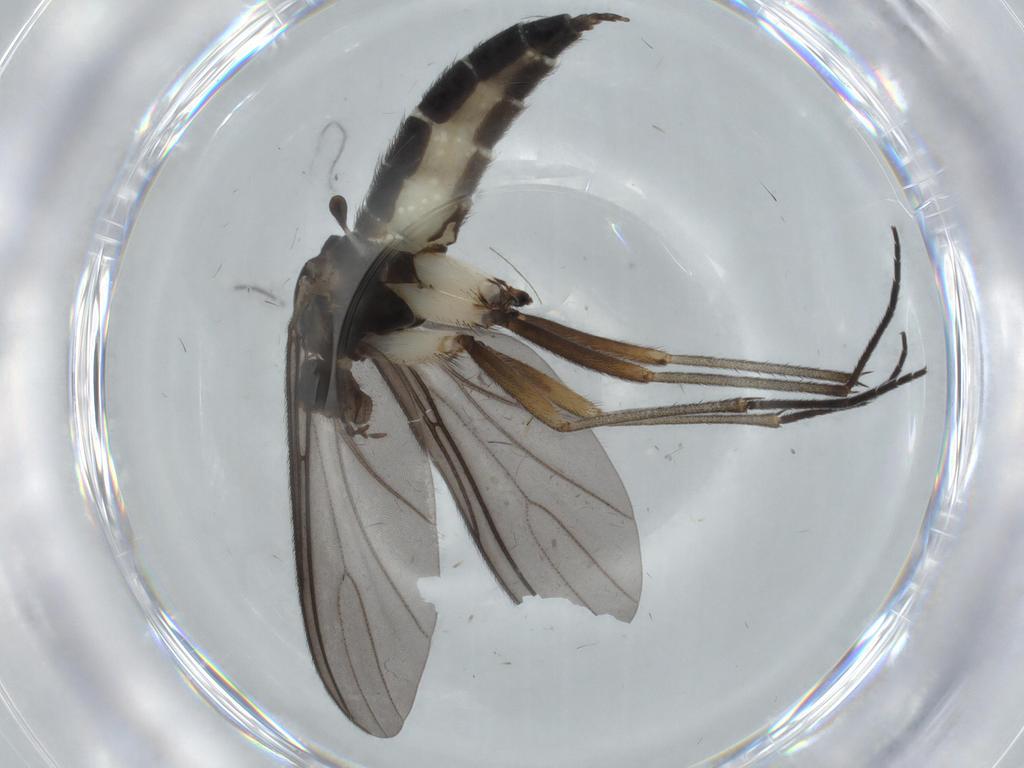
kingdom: Animalia
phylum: Arthropoda
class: Insecta
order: Diptera
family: Sciaridae
